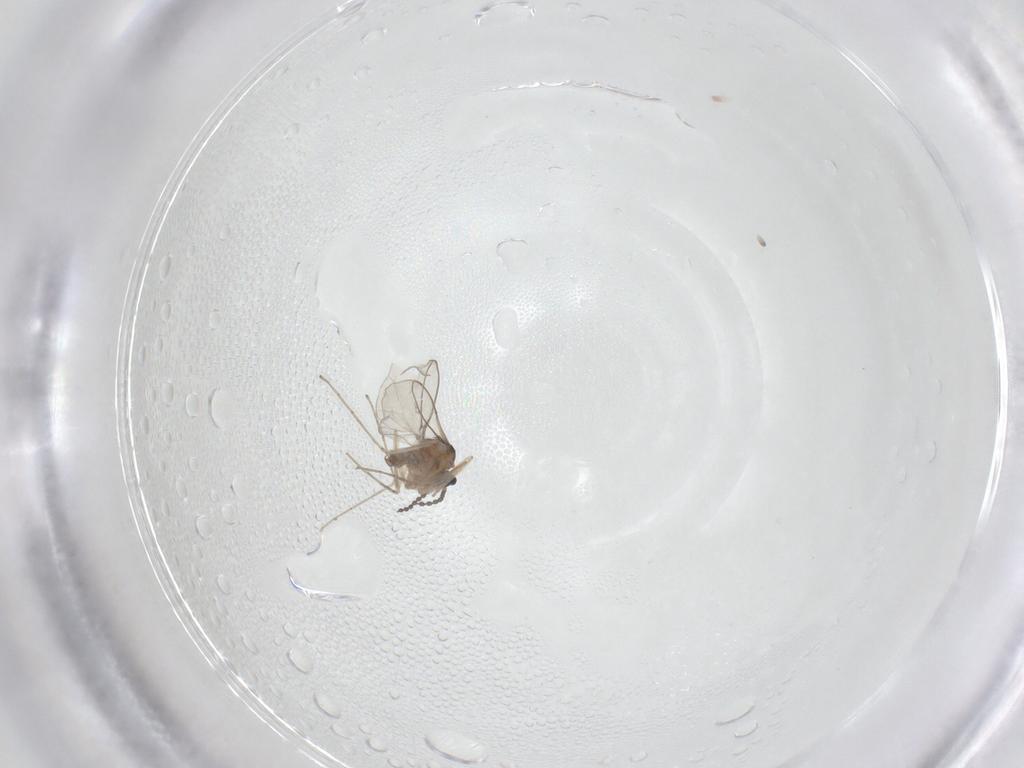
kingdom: Animalia
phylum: Arthropoda
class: Insecta
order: Diptera
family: Cecidomyiidae
